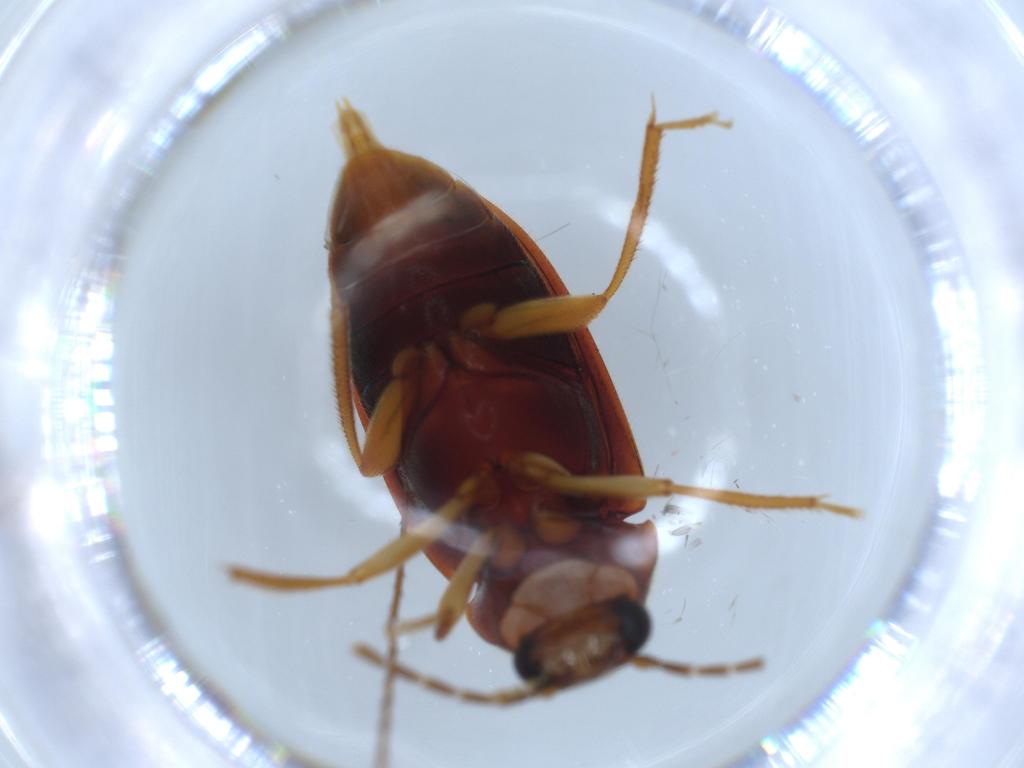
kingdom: Animalia
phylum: Arthropoda
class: Insecta
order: Coleoptera
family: Ptilodactylidae
